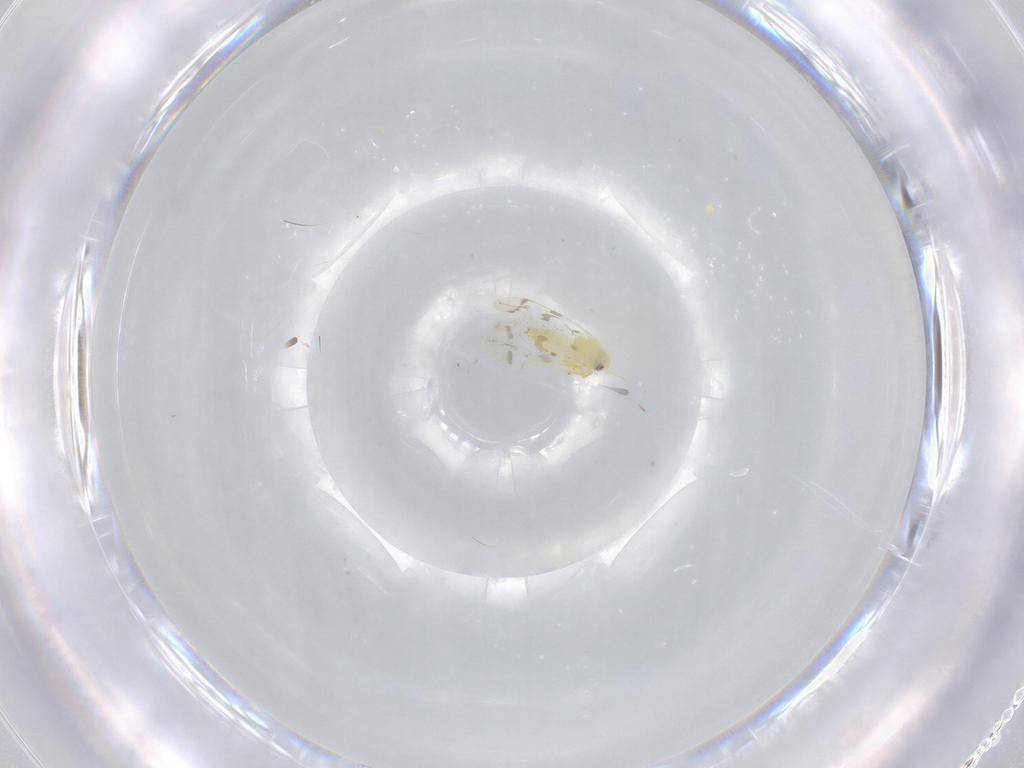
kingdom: Animalia
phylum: Arthropoda
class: Insecta
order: Hemiptera
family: Aleyrodidae
